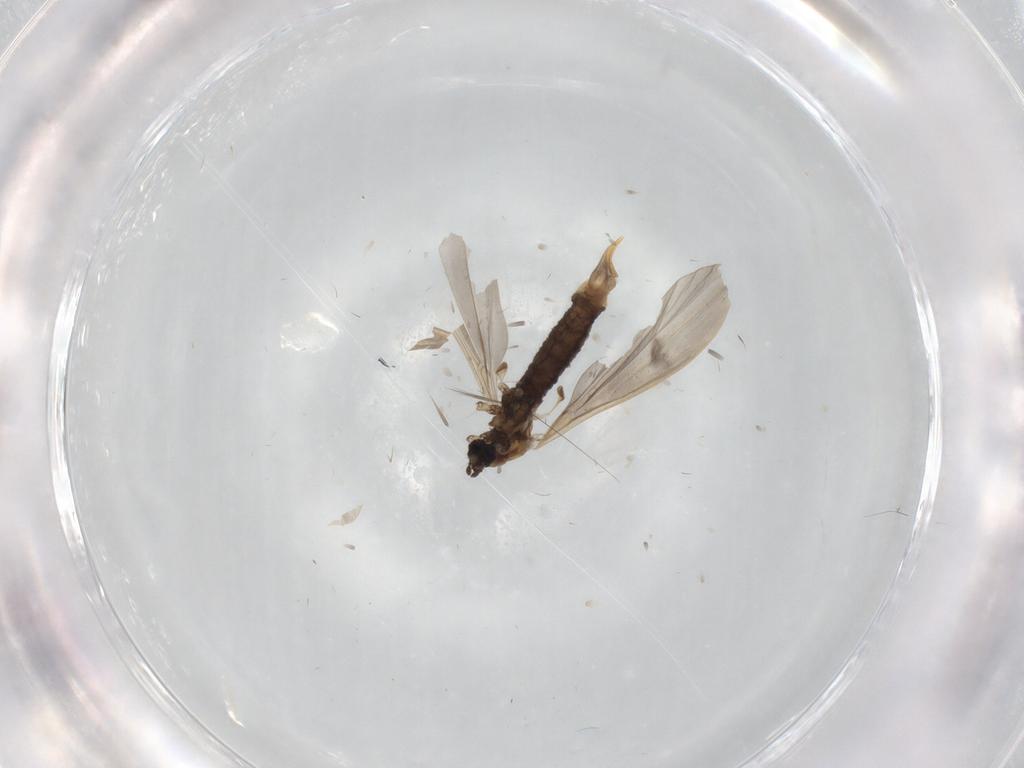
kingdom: Animalia
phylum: Arthropoda
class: Insecta
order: Diptera
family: Limoniidae
